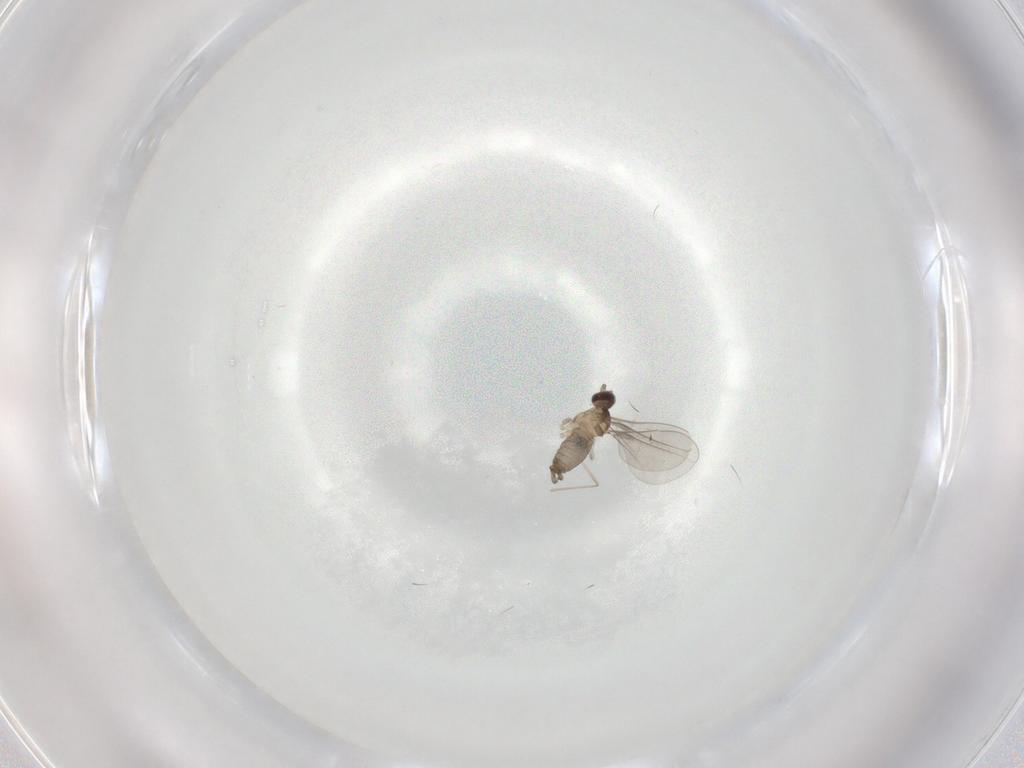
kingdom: Animalia
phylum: Arthropoda
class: Insecta
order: Diptera
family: Cecidomyiidae
